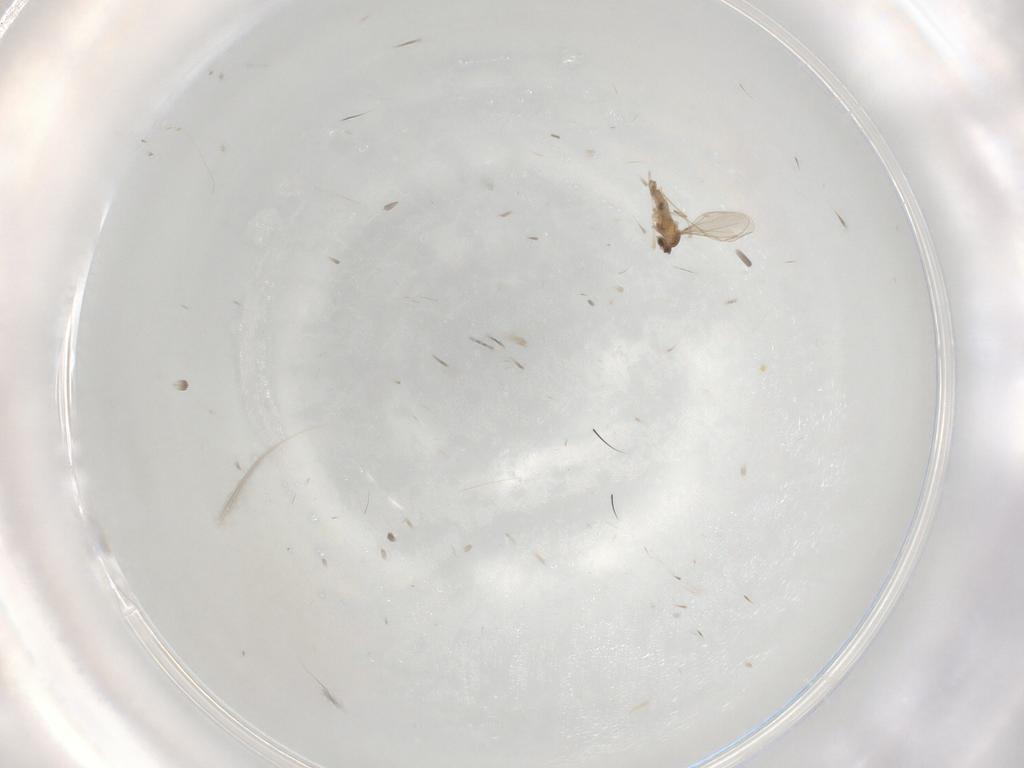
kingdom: Animalia
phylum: Arthropoda
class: Insecta
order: Diptera
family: Cecidomyiidae
